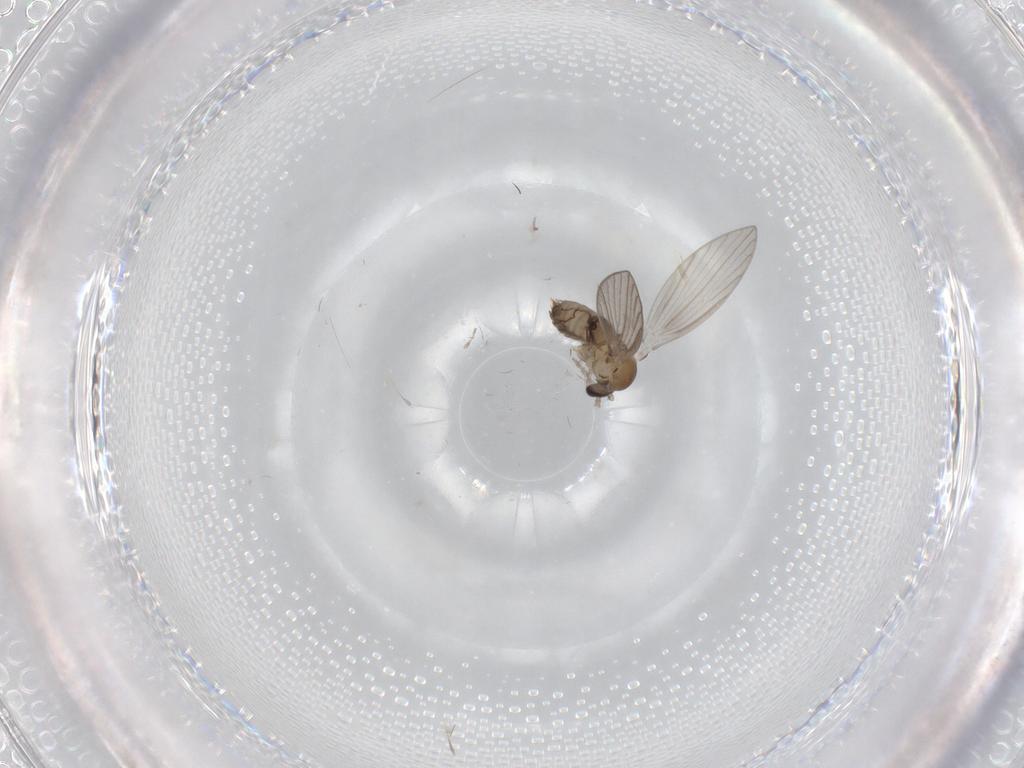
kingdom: Animalia
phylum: Arthropoda
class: Insecta
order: Diptera
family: Psychodidae
